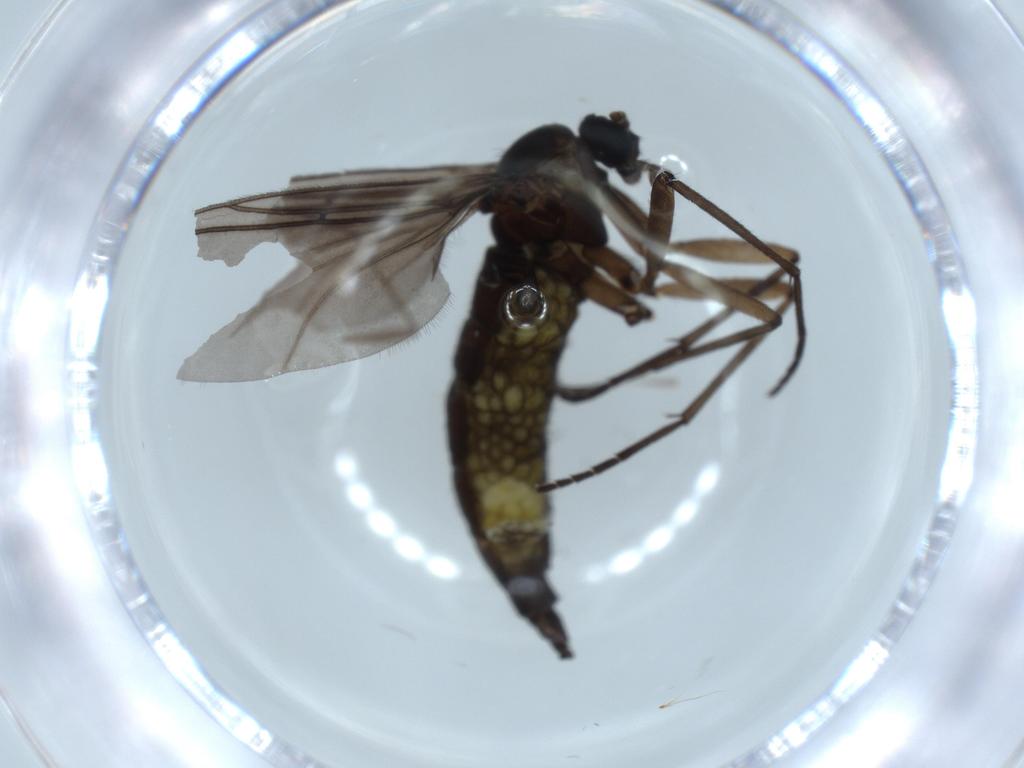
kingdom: Animalia
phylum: Arthropoda
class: Insecta
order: Diptera
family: Sciaridae
